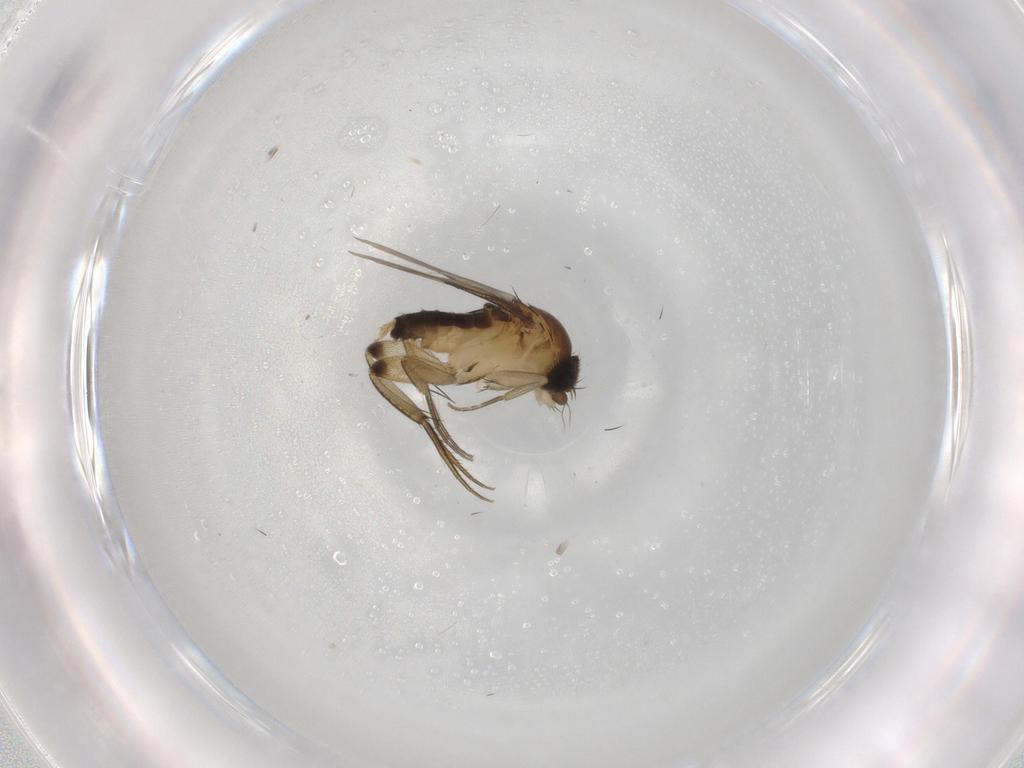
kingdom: Animalia
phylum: Arthropoda
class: Insecta
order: Diptera
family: Phoridae
